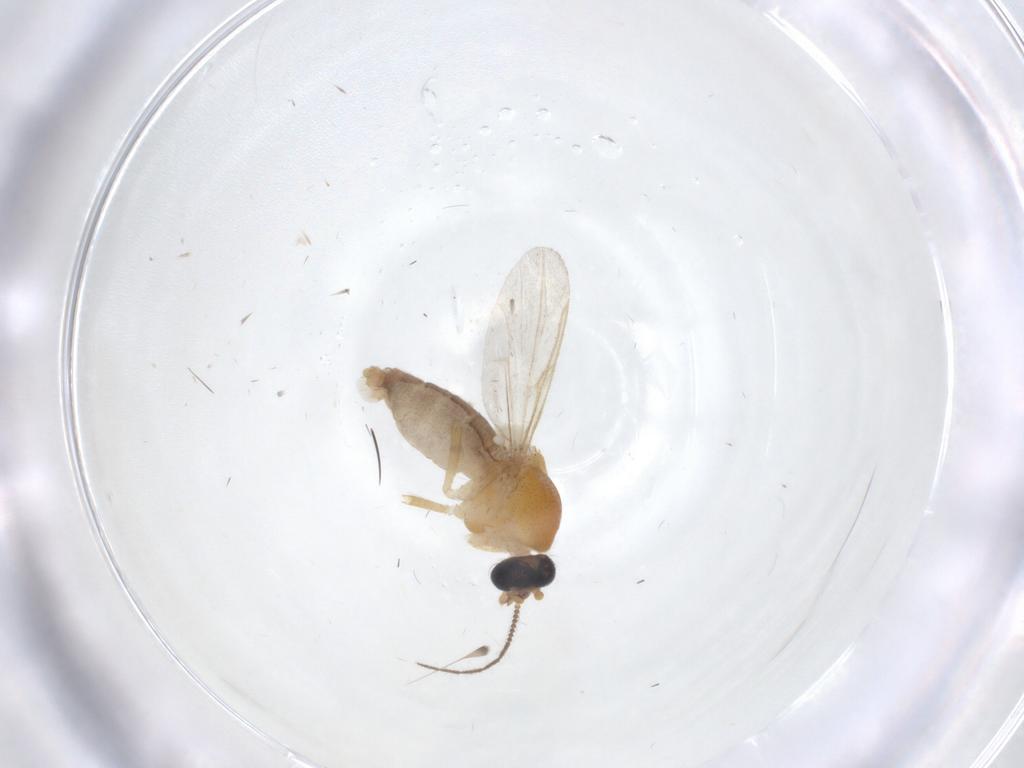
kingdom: Animalia
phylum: Arthropoda
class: Insecta
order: Diptera
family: Ceratopogonidae
